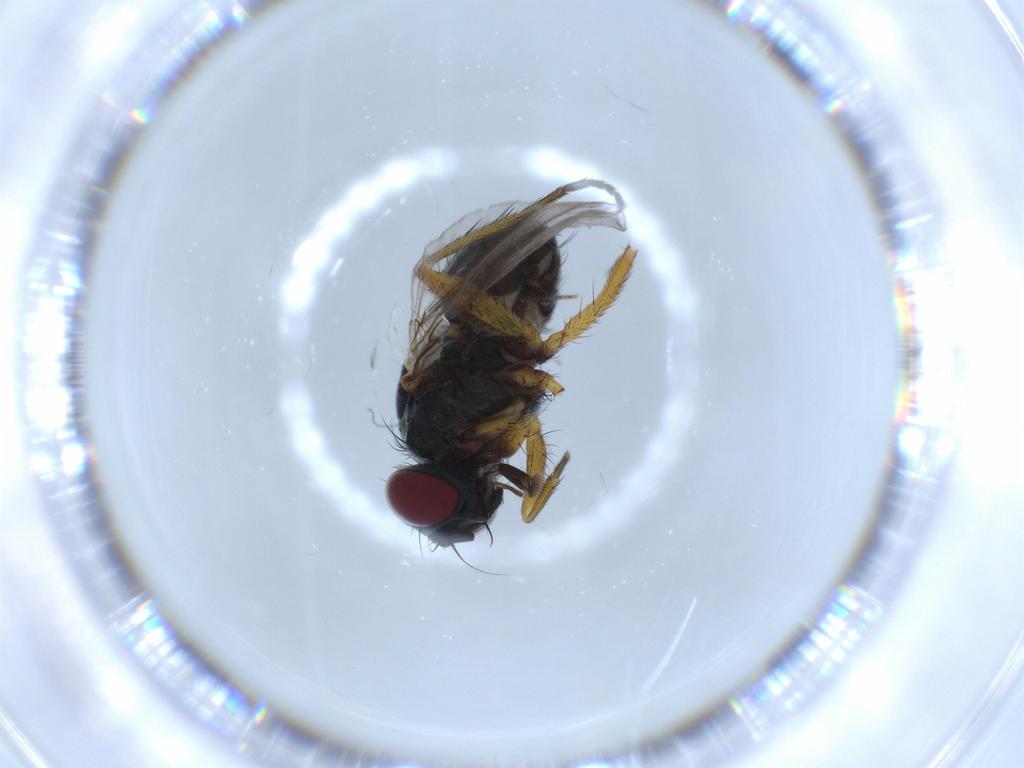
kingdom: Animalia
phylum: Arthropoda
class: Insecta
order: Diptera
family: Muscidae
